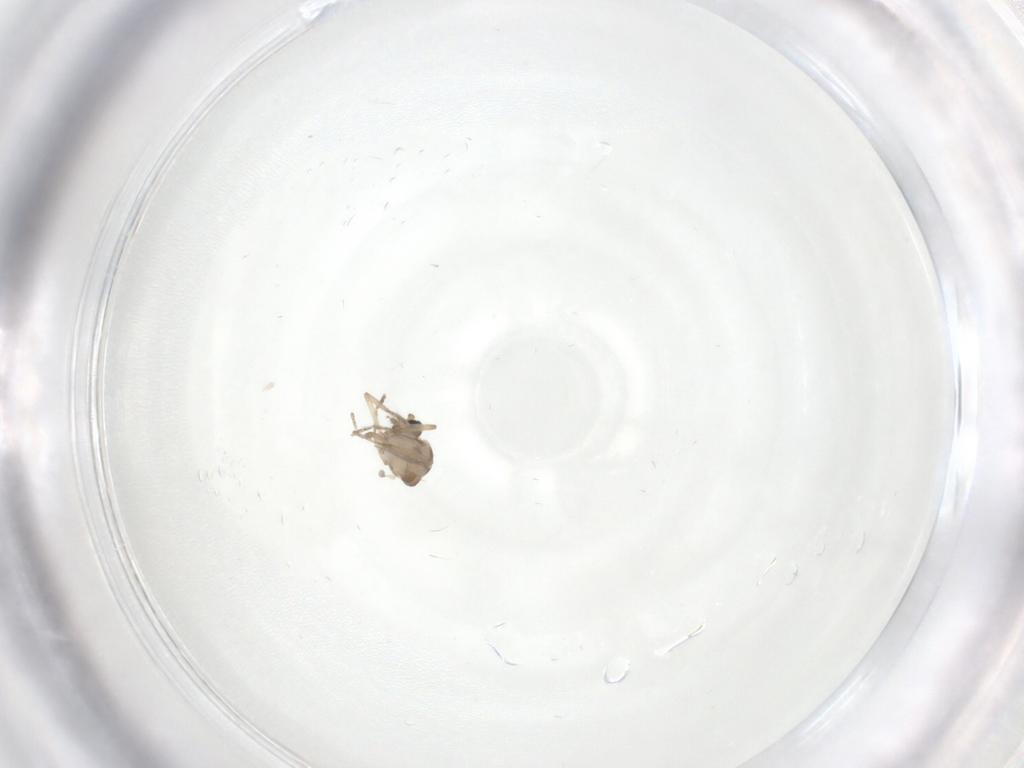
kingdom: Animalia
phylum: Arthropoda
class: Insecta
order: Diptera
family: Ceratopogonidae
